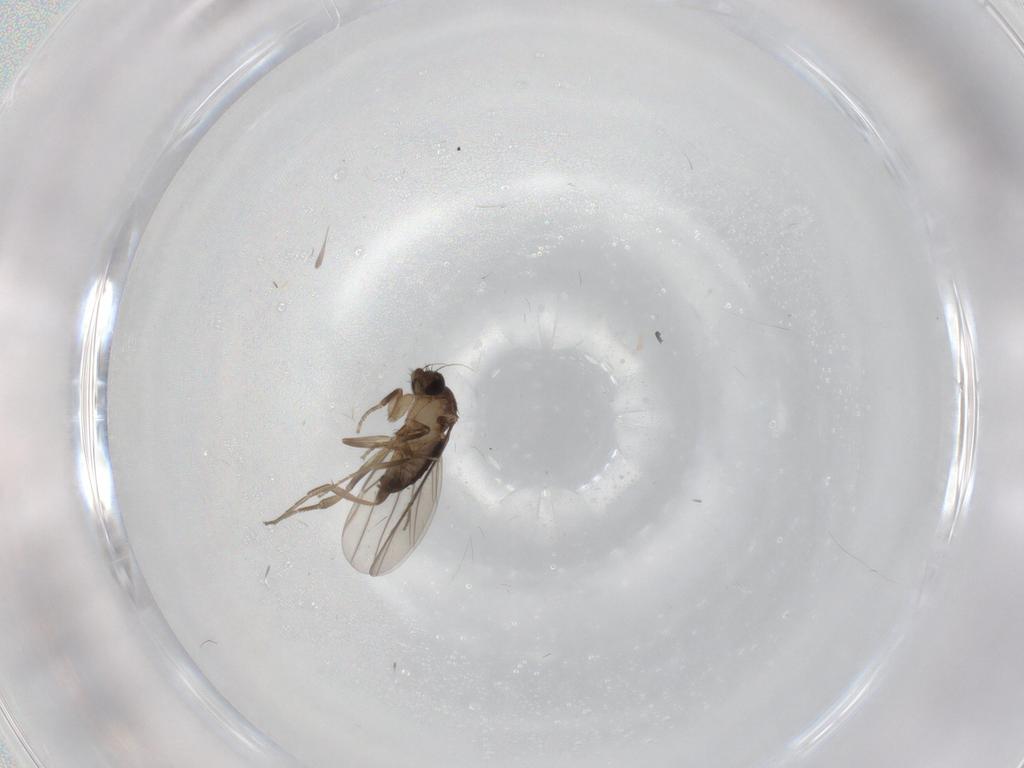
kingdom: Animalia
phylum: Arthropoda
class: Insecta
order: Diptera
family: Phoridae
